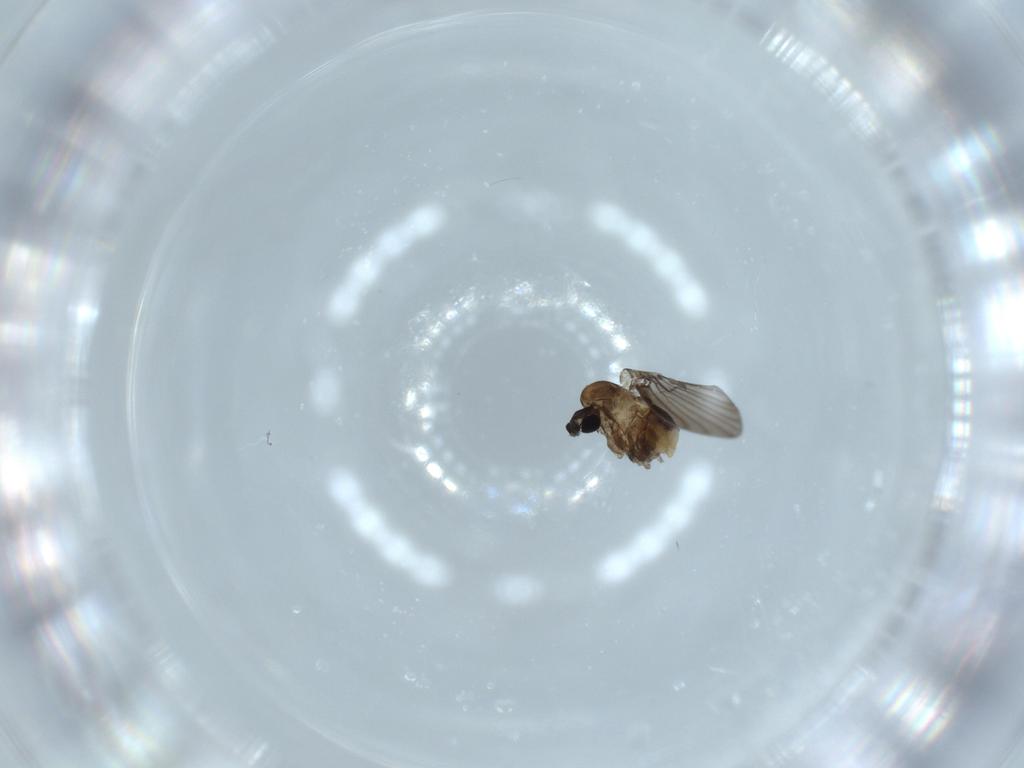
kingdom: Animalia
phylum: Arthropoda
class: Insecta
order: Diptera
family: Psychodidae
